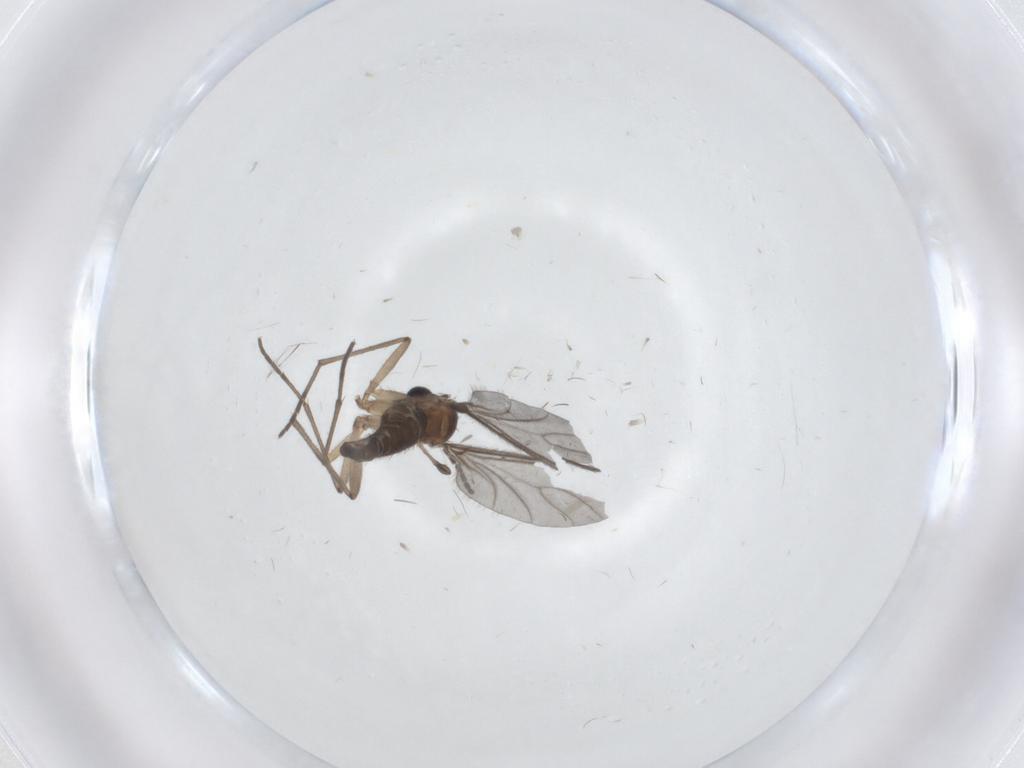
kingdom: Animalia
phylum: Arthropoda
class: Insecta
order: Diptera
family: Sciaridae
